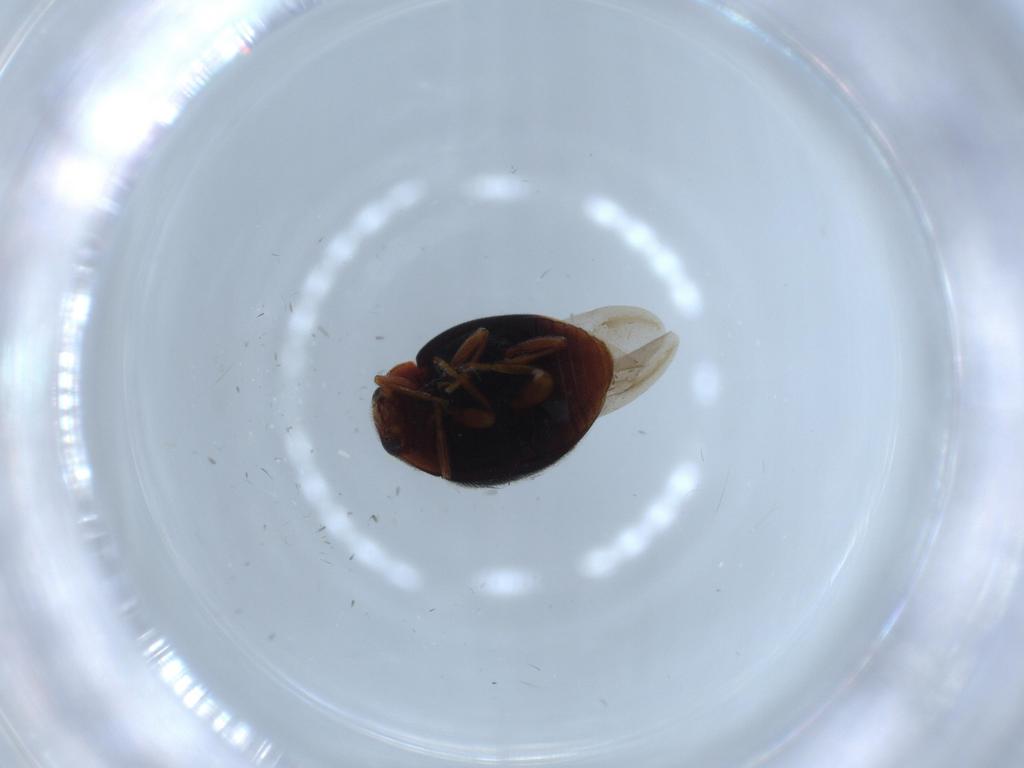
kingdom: Animalia
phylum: Arthropoda
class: Insecta
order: Coleoptera
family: Coccinellidae
